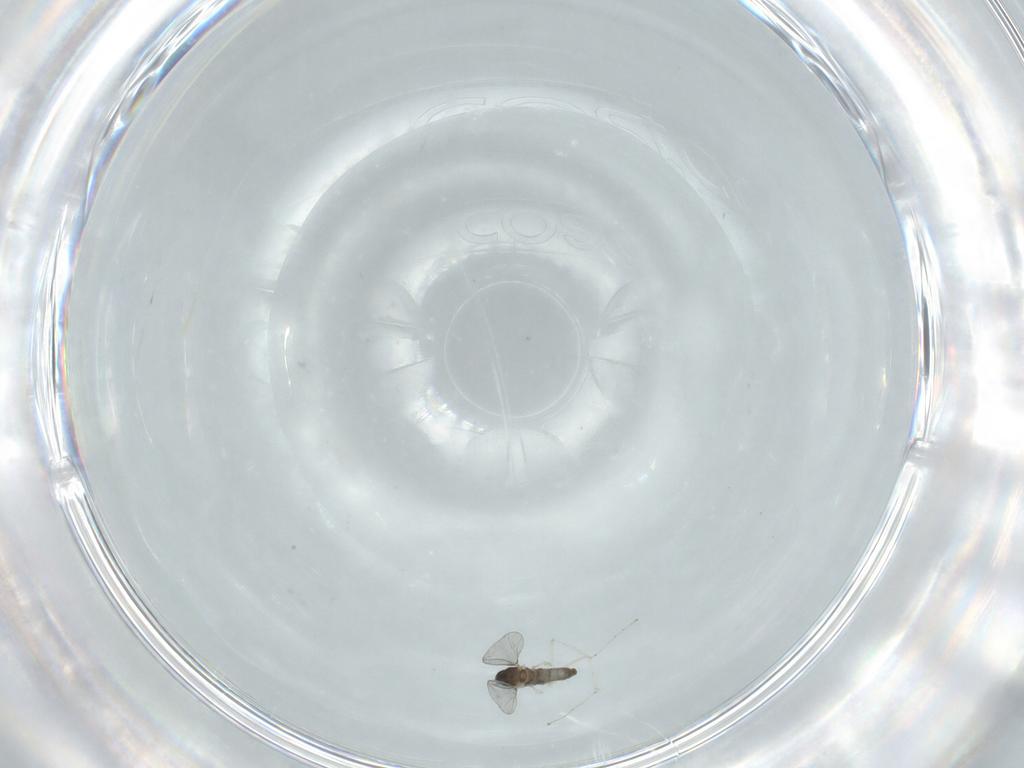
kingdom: Animalia
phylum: Arthropoda
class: Insecta
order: Diptera
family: Cecidomyiidae
